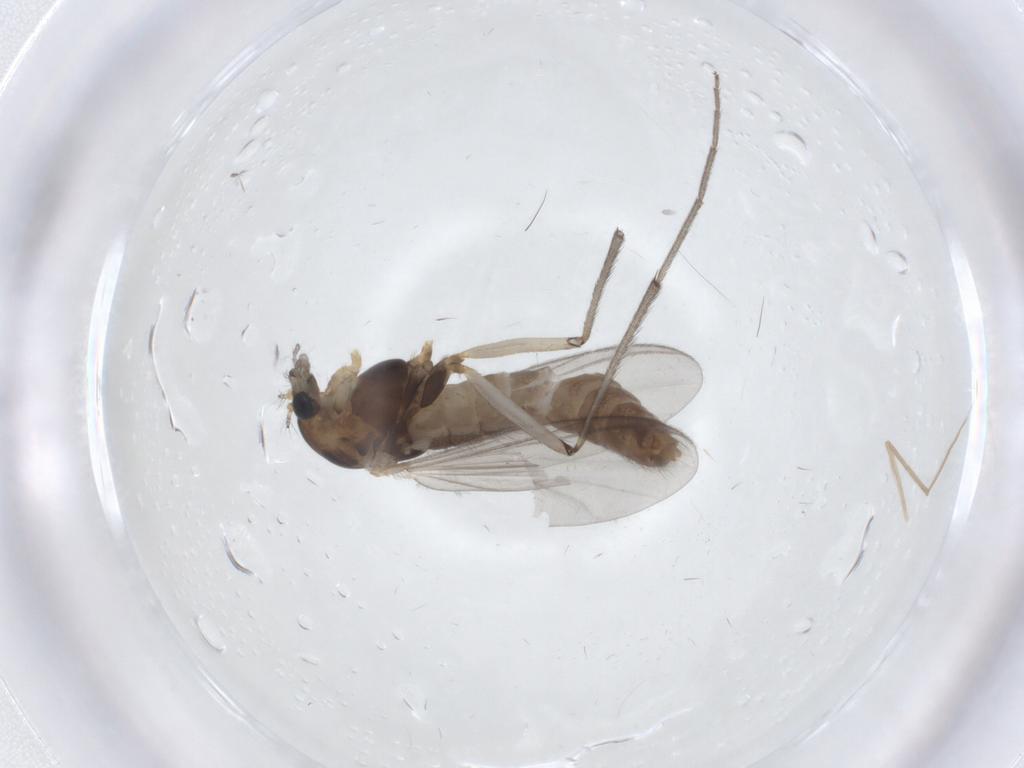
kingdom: Animalia
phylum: Arthropoda
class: Insecta
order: Diptera
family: Chironomidae
